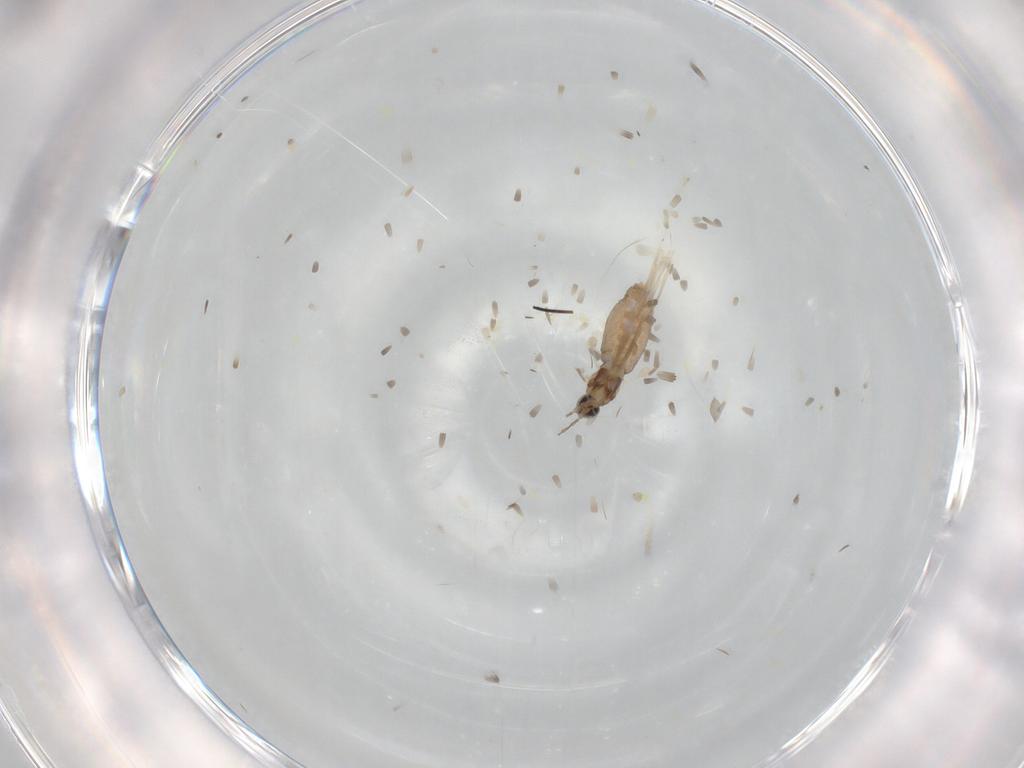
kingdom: Animalia
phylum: Arthropoda
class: Insecta
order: Diptera
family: Cecidomyiidae
